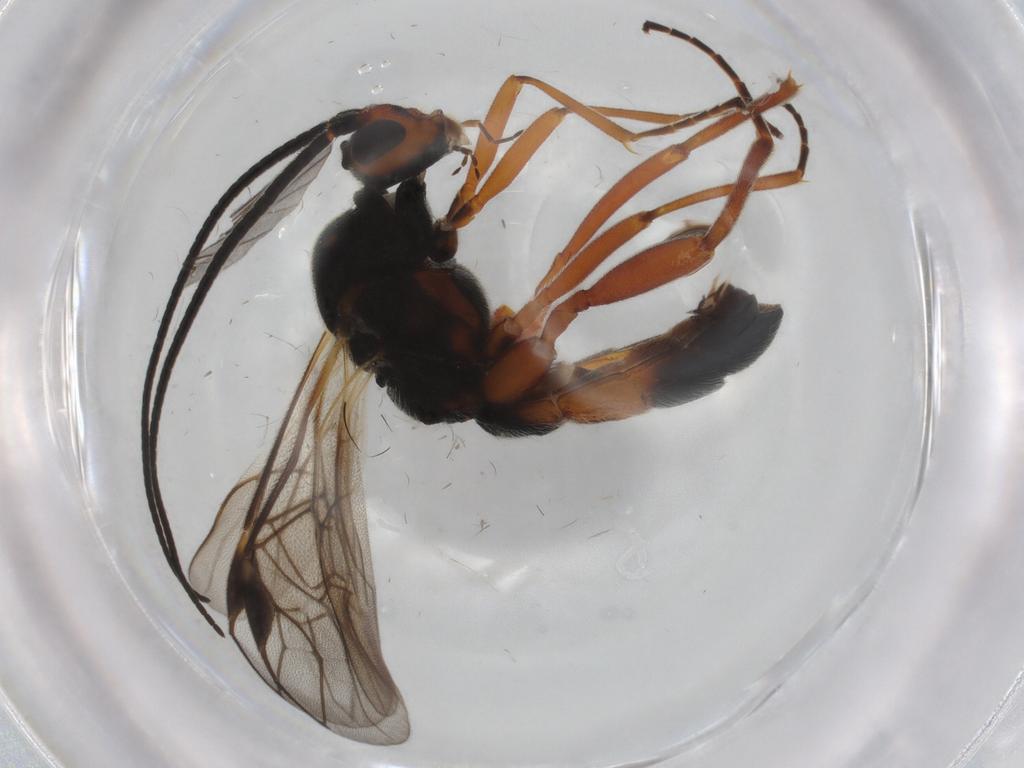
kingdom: Animalia
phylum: Arthropoda
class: Insecta
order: Hymenoptera
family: Braconidae
